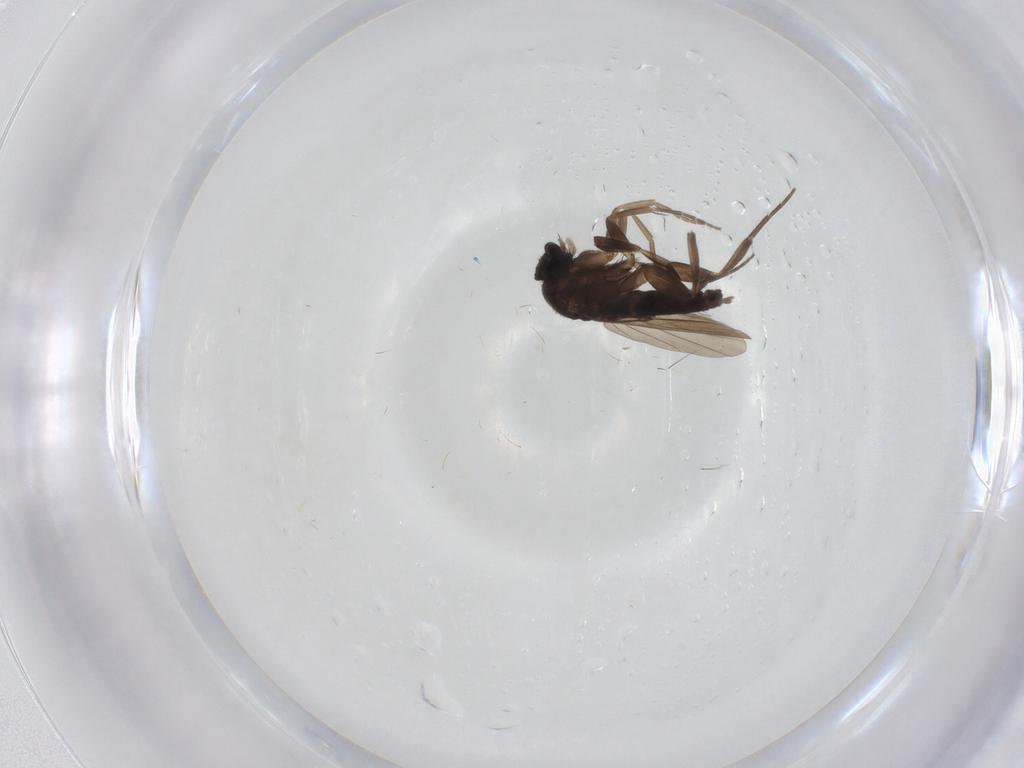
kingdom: Animalia
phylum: Arthropoda
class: Insecta
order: Diptera
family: Phoridae
